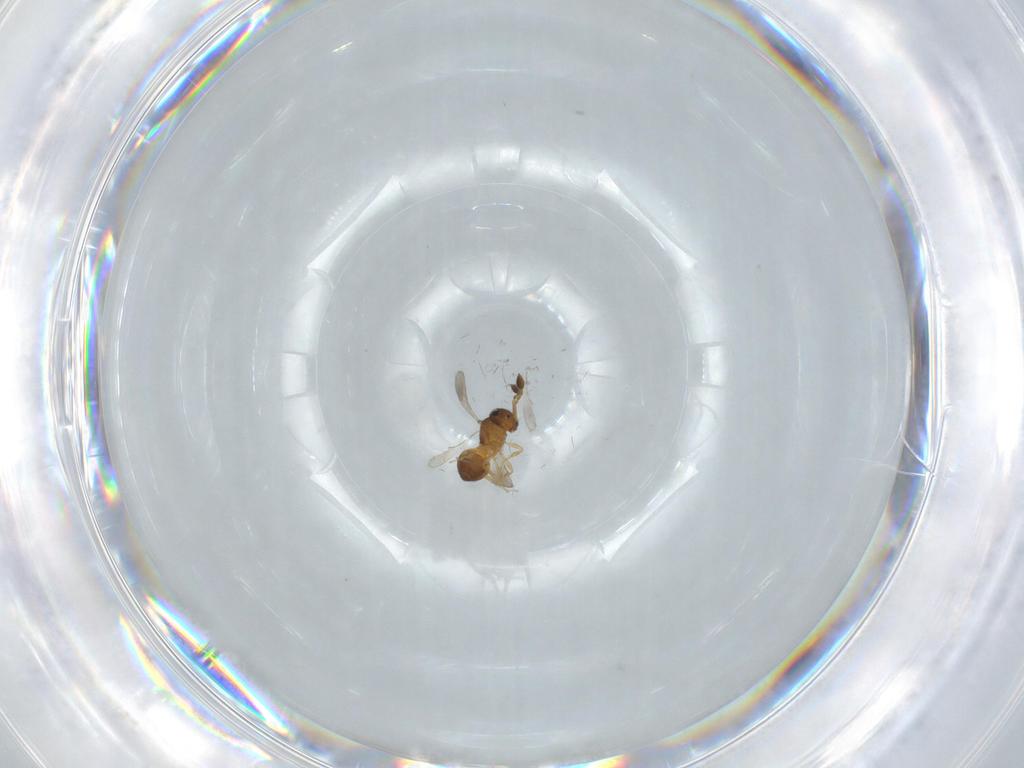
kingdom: Animalia
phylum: Arthropoda
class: Insecta
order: Hymenoptera
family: Scelionidae
